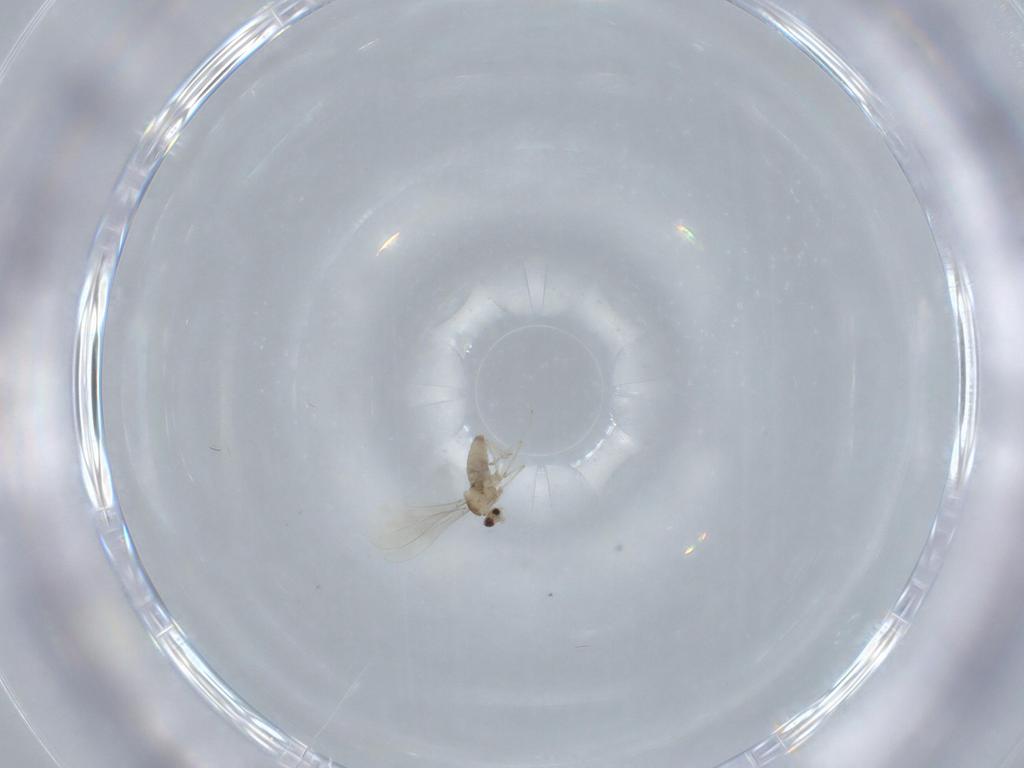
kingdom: Animalia
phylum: Arthropoda
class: Insecta
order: Diptera
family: Cecidomyiidae
